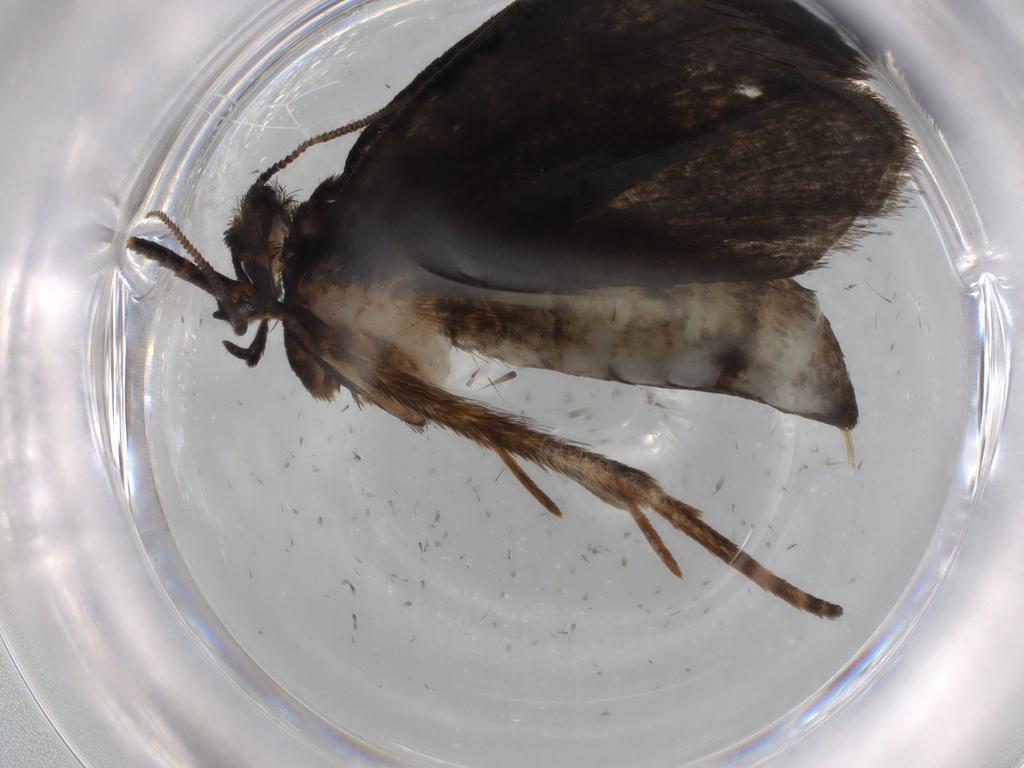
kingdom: Animalia
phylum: Arthropoda
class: Insecta
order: Lepidoptera
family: Tineidae
